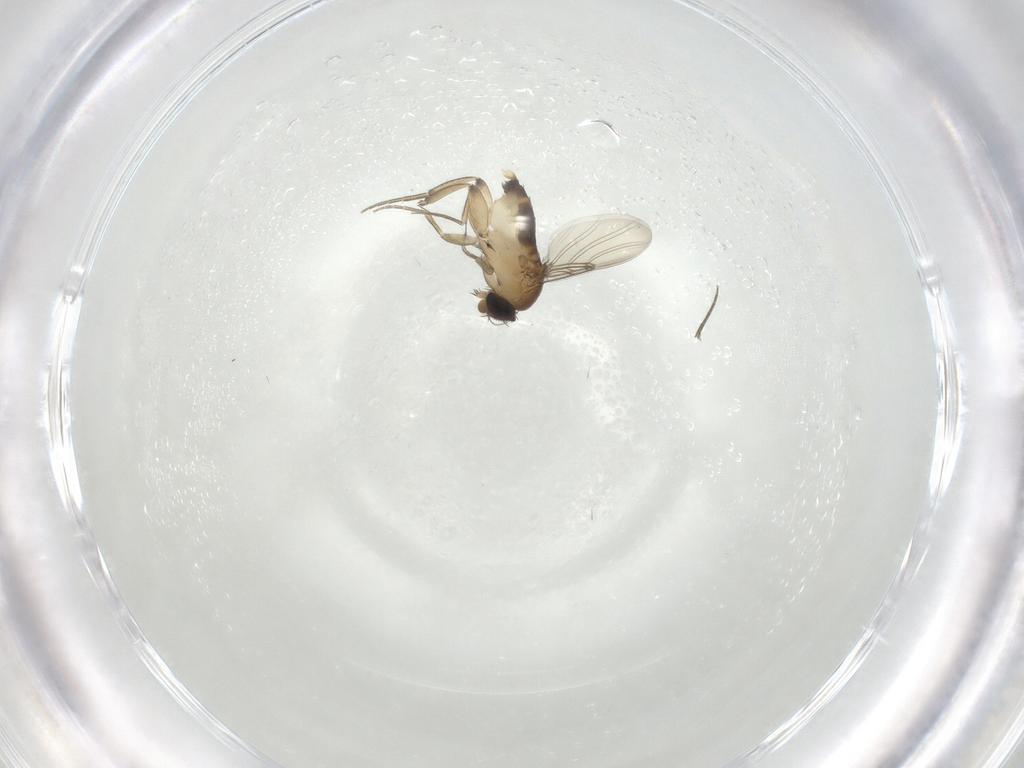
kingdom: Animalia
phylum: Arthropoda
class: Insecta
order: Diptera
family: Phoridae
